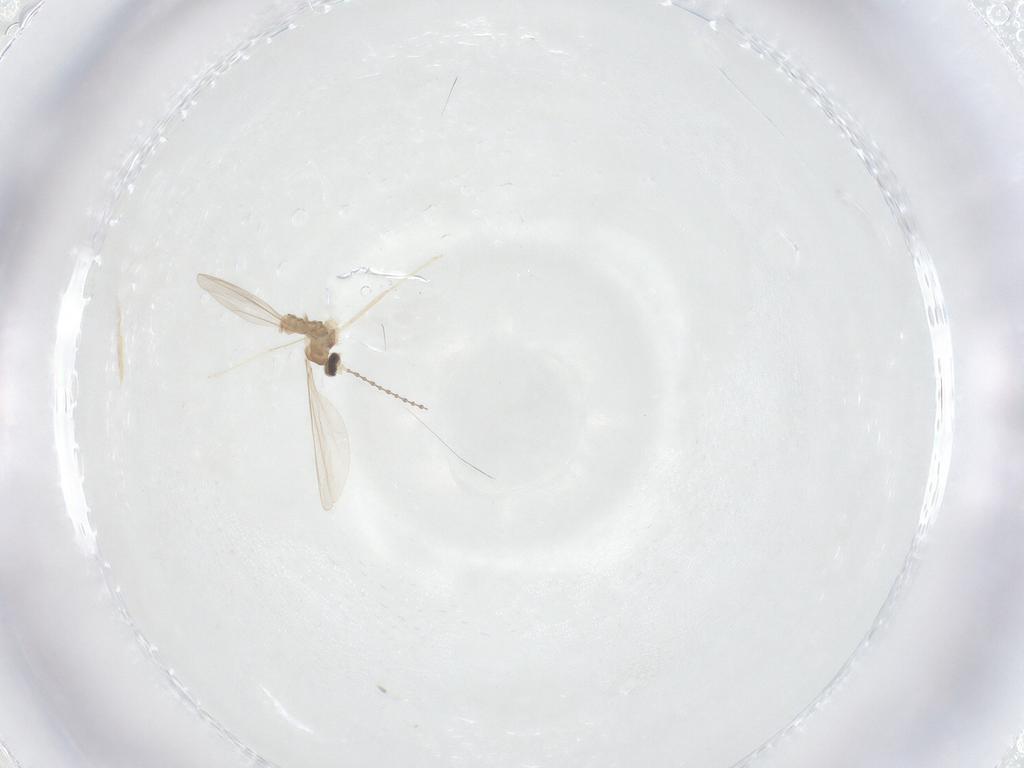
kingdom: Animalia
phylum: Arthropoda
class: Insecta
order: Diptera
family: Cecidomyiidae
